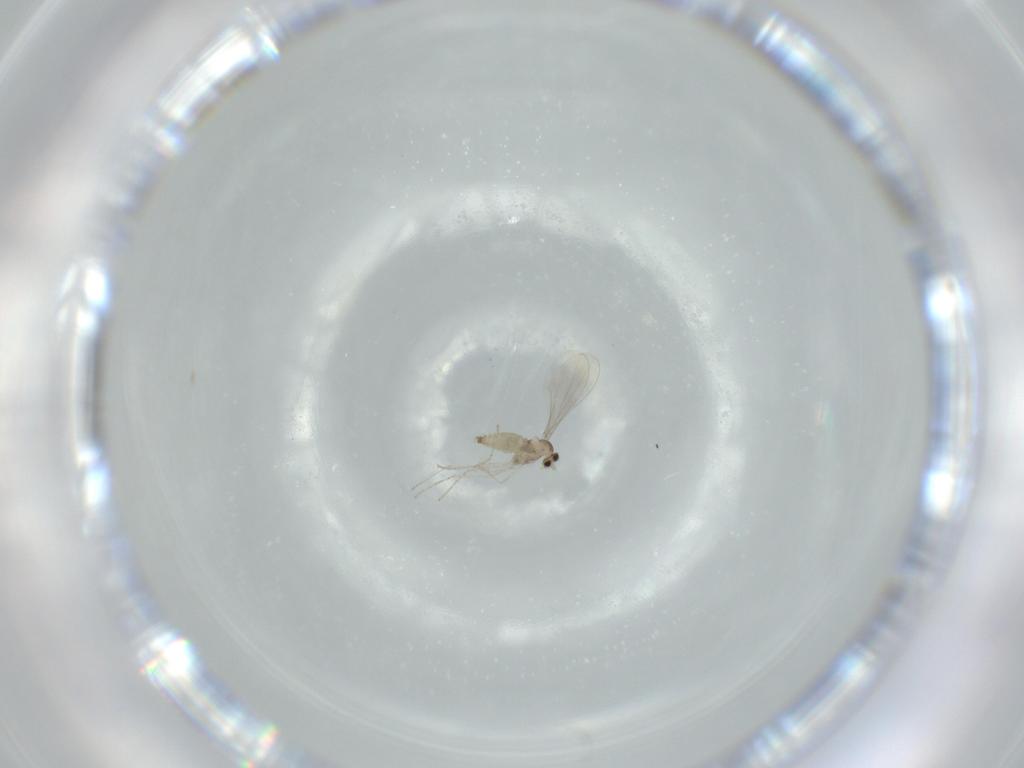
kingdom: Animalia
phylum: Arthropoda
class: Insecta
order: Diptera
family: Cecidomyiidae
